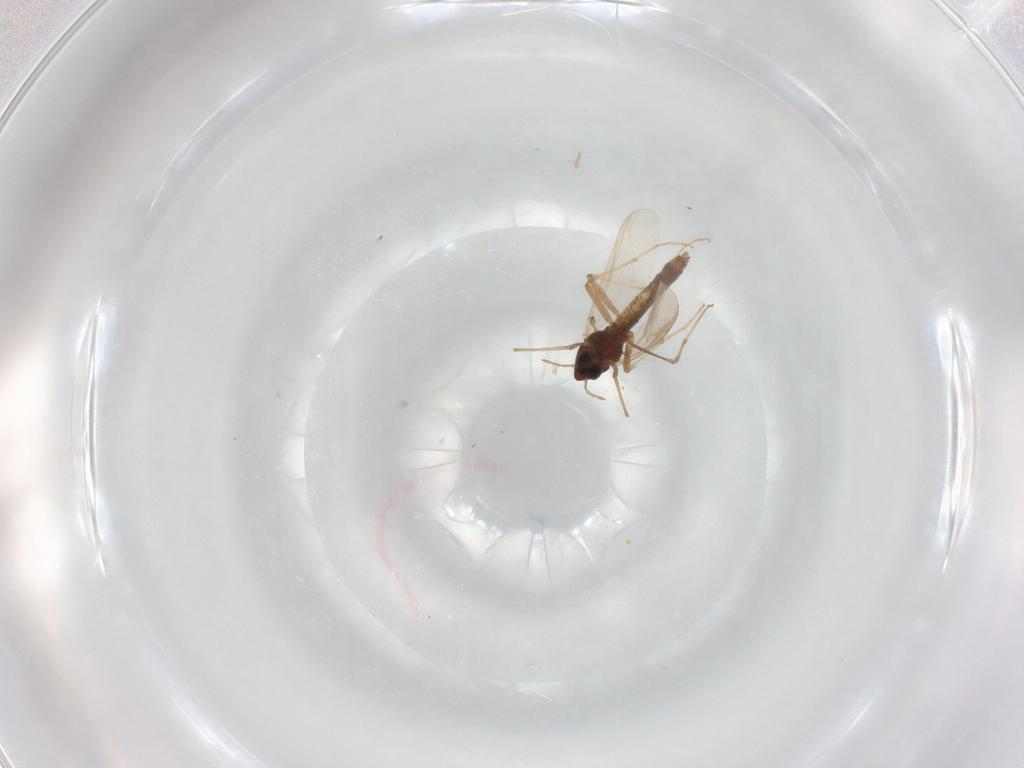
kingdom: Animalia
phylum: Arthropoda
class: Insecta
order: Diptera
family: Chironomidae
